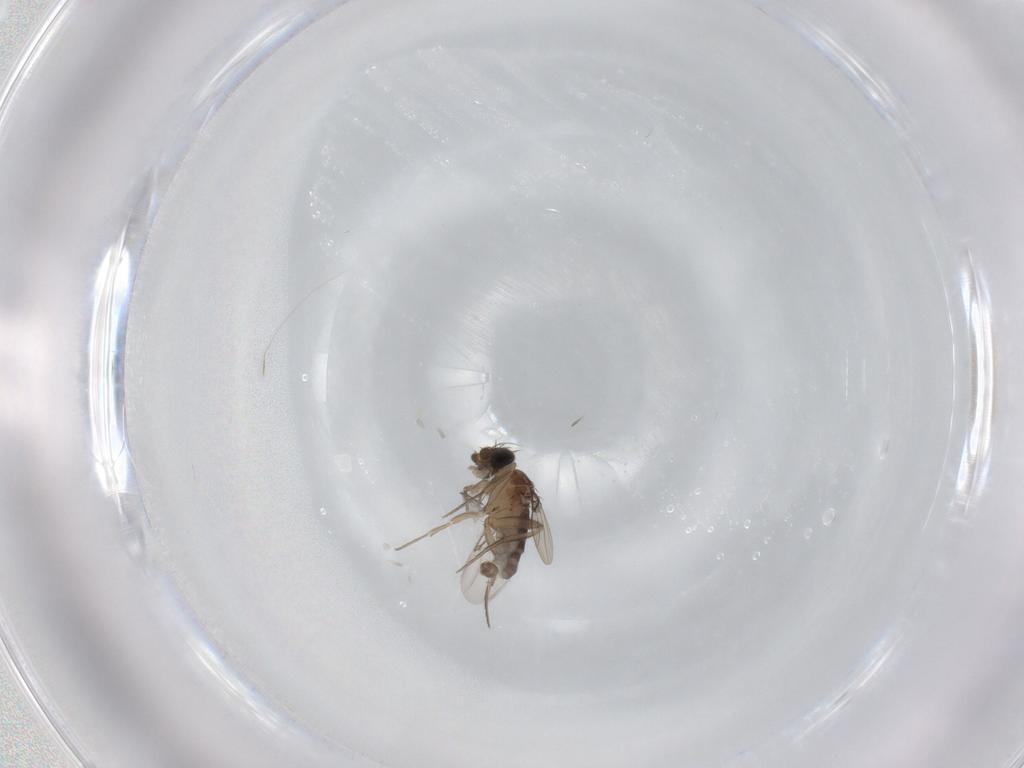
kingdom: Animalia
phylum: Arthropoda
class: Insecta
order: Diptera
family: Phoridae
